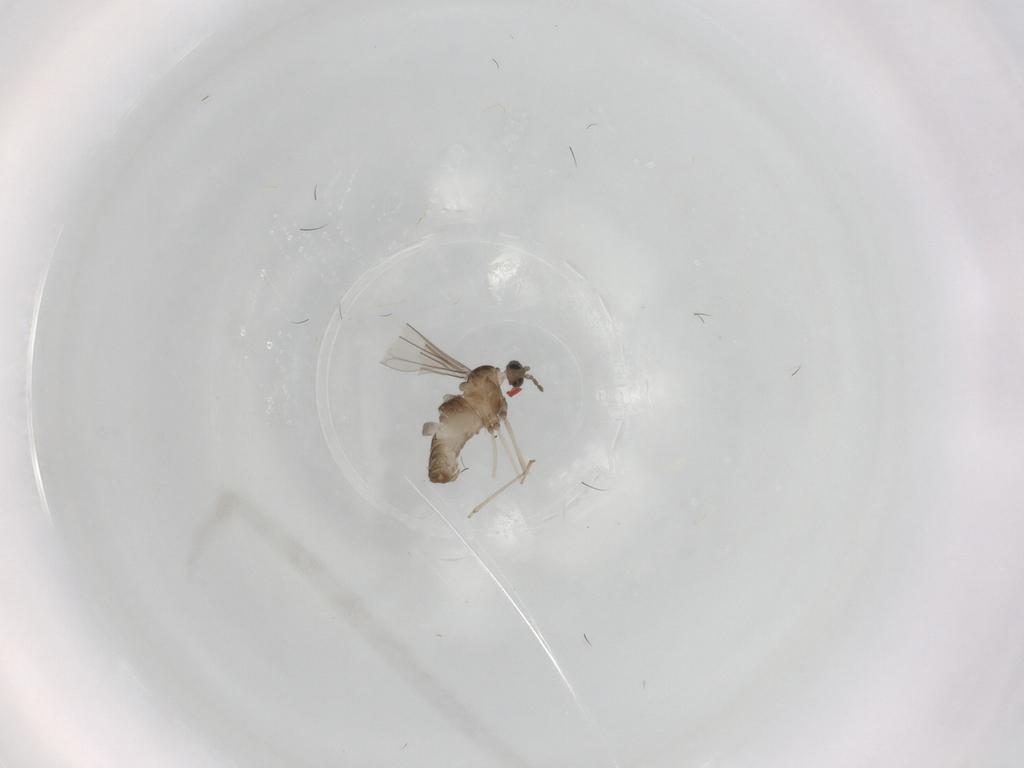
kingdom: Animalia
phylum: Arthropoda
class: Insecta
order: Diptera
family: Cecidomyiidae
